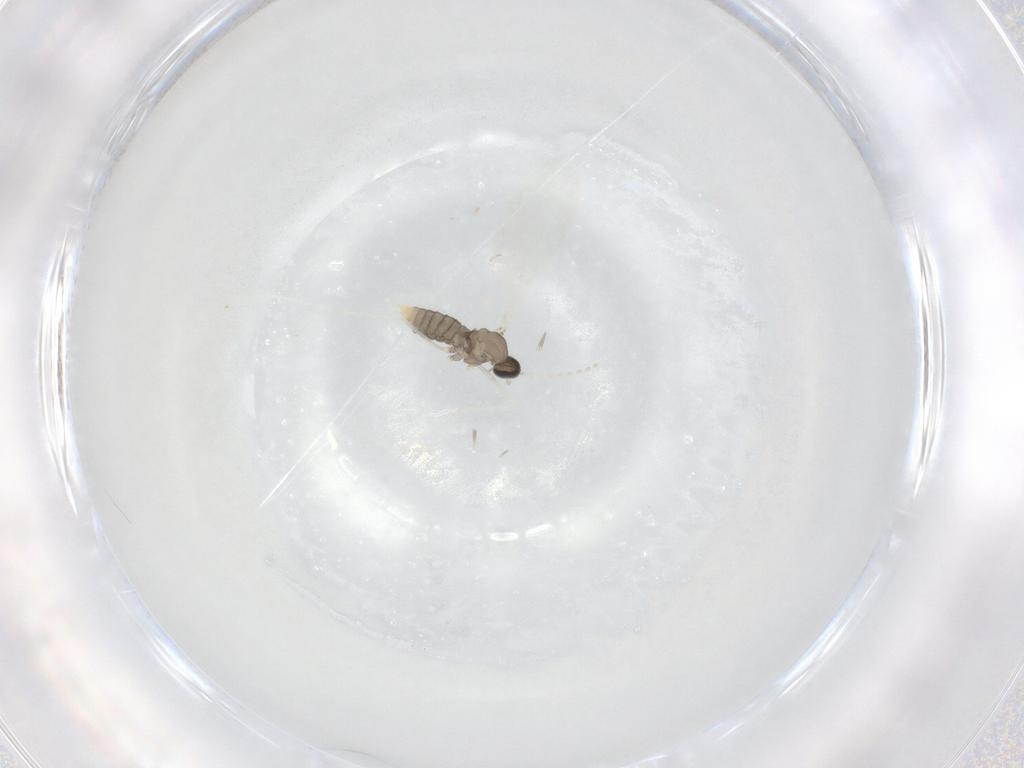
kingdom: Animalia
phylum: Arthropoda
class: Insecta
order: Diptera
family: Cecidomyiidae
